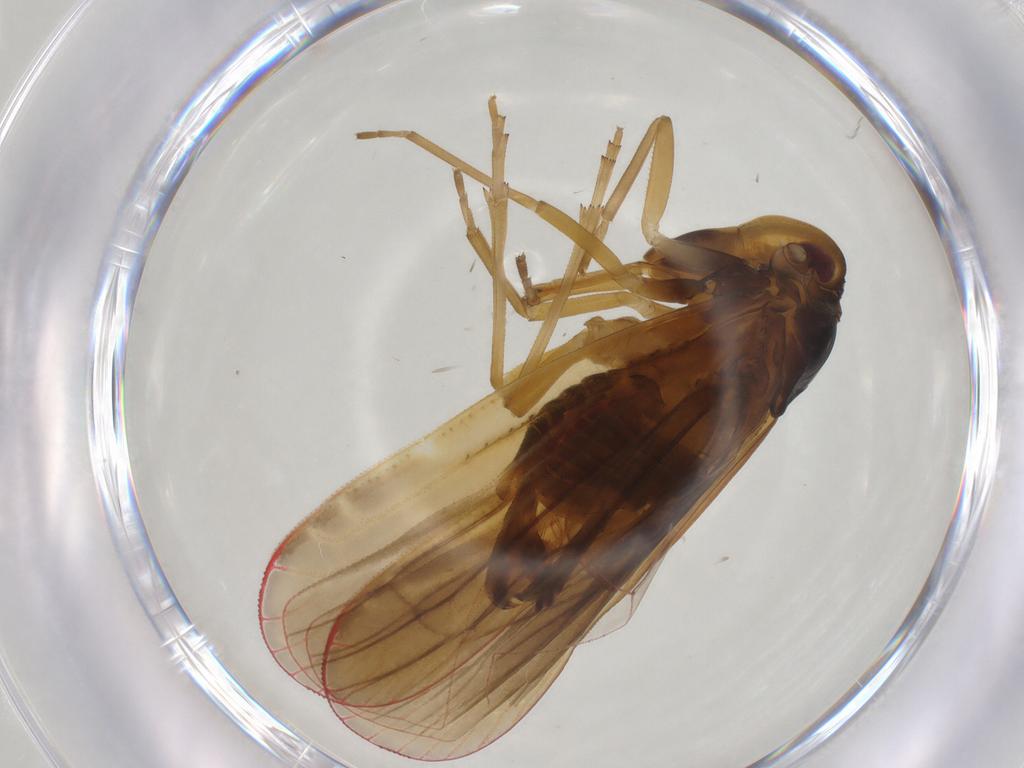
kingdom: Animalia
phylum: Arthropoda
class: Insecta
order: Hemiptera
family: Derbidae
